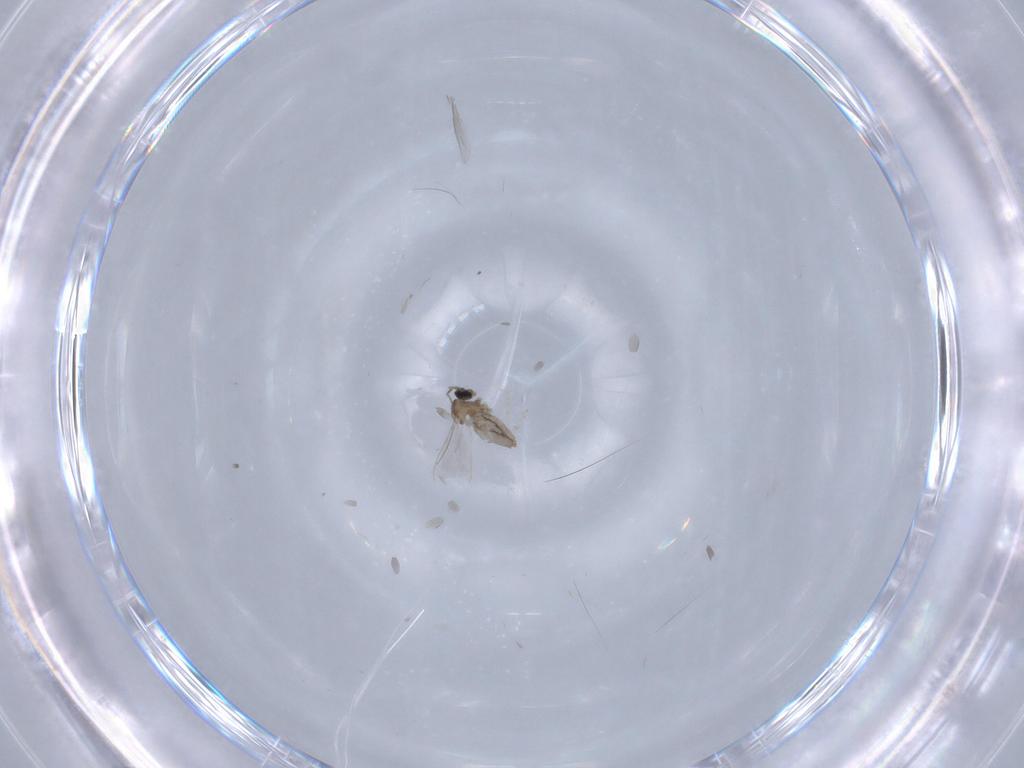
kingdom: Animalia
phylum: Arthropoda
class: Insecta
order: Diptera
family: Cecidomyiidae
